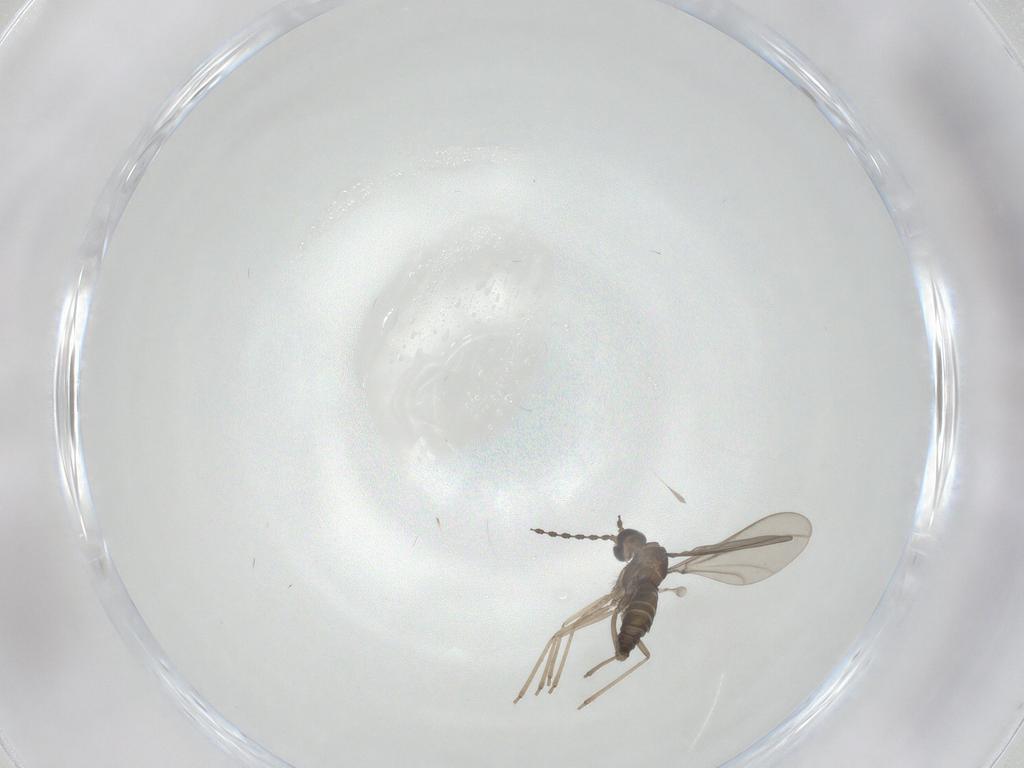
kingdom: Animalia
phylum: Arthropoda
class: Insecta
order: Diptera
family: Cecidomyiidae
